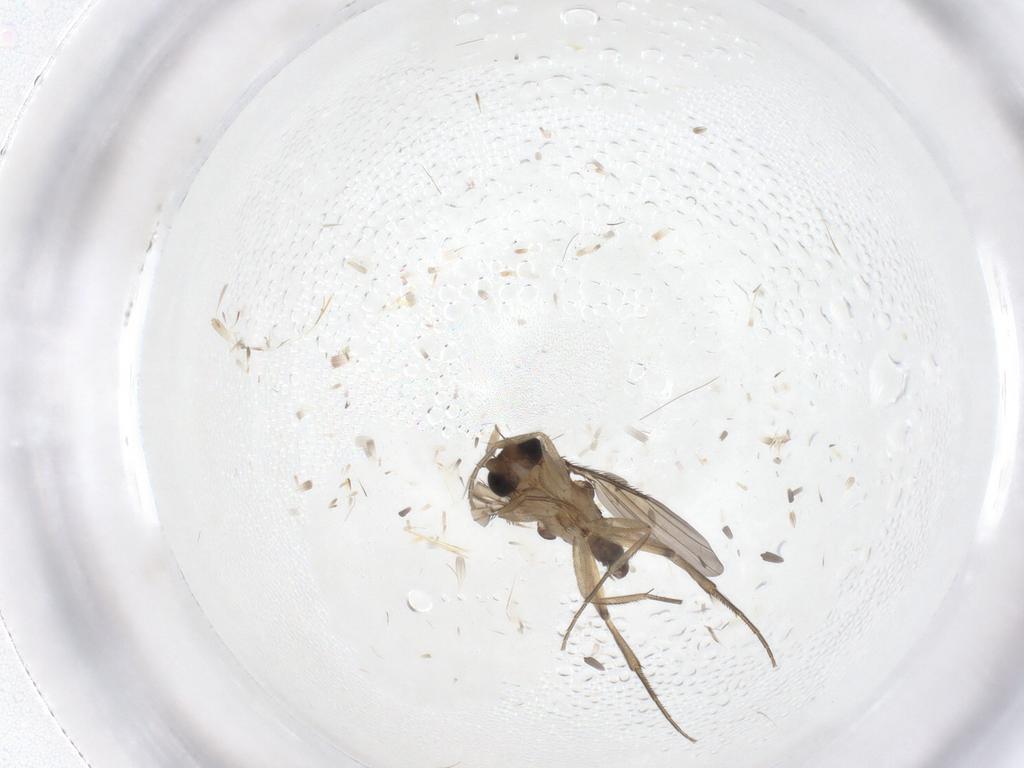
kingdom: Animalia
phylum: Arthropoda
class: Insecta
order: Diptera
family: Phoridae
